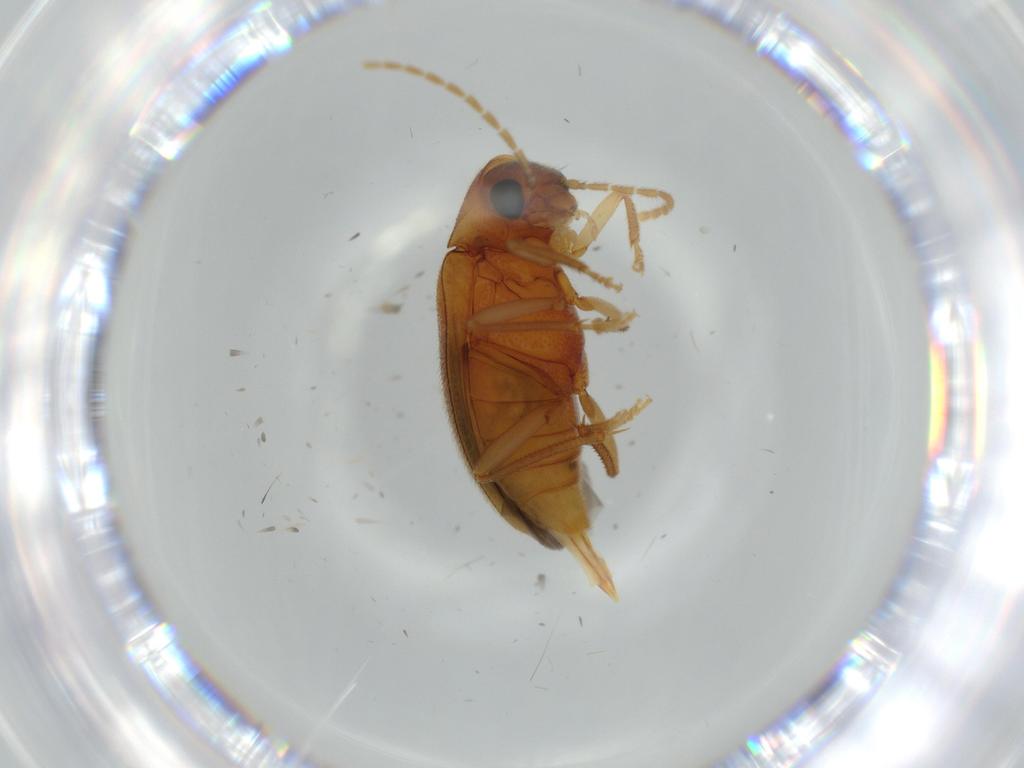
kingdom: Animalia
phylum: Arthropoda
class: Insecta
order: Coleoptera
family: Ptilodactylidae
